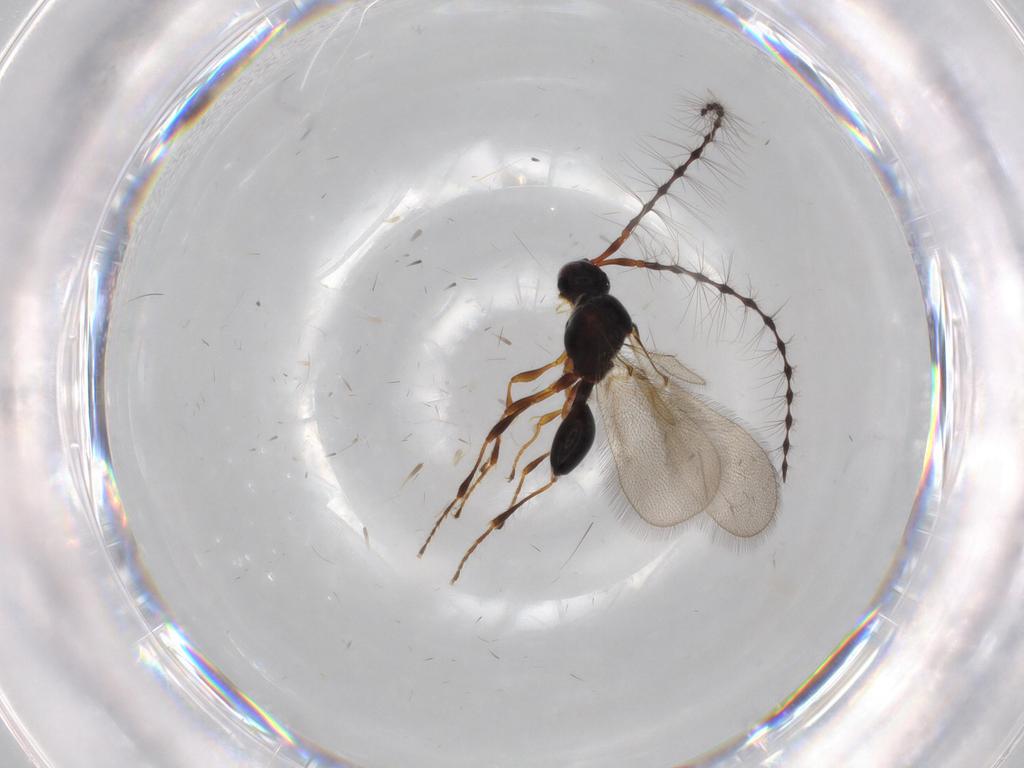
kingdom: Animalia
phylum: Arthropoda
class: Insecta
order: Hymenoptera
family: Diapriidae
